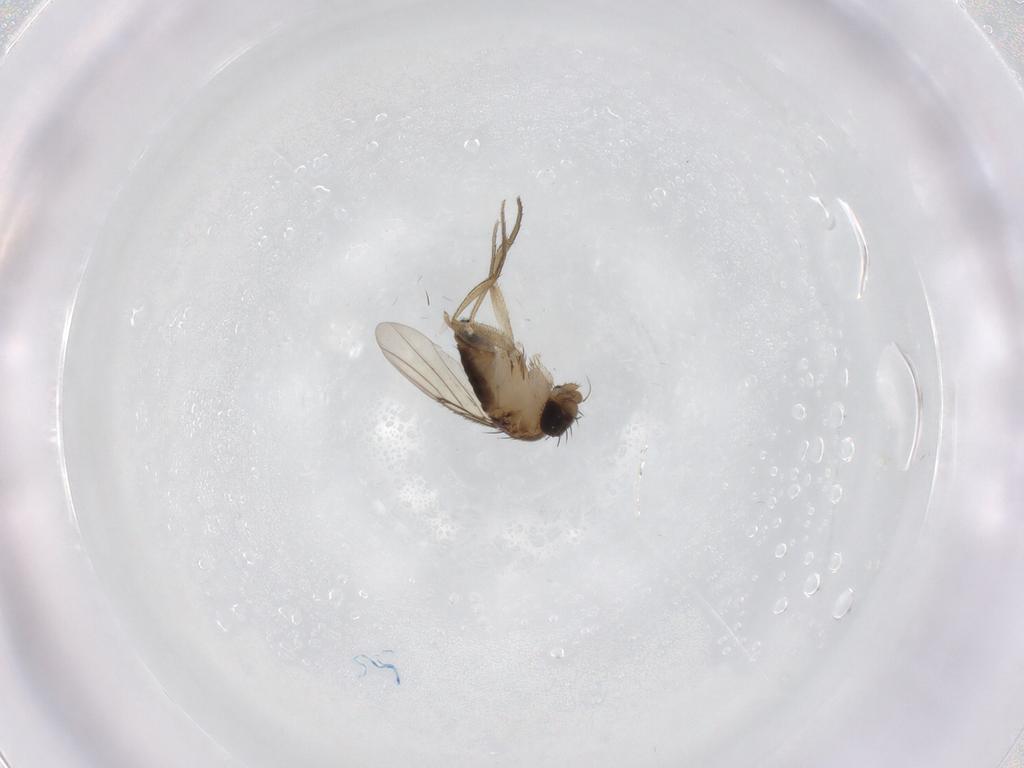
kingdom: Animalia
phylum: Arthropoda
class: Insecta
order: Diptera
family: Phoridae
